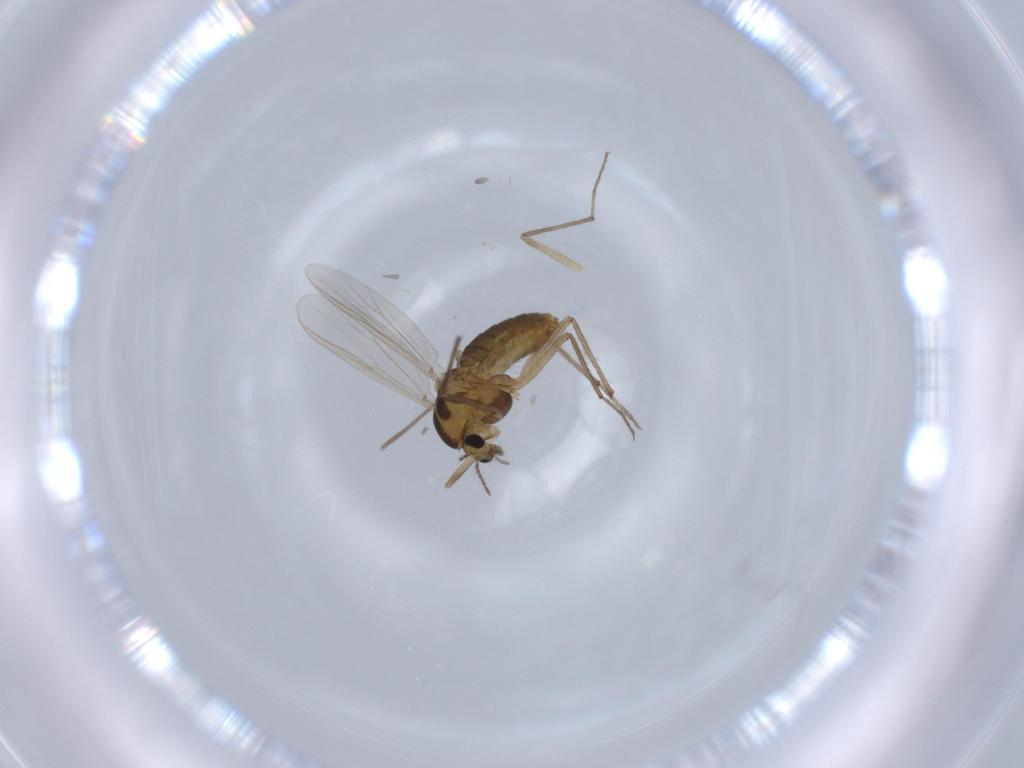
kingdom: Animalia
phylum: Arthropoda
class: Insecta
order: Diptera
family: Chironomidae
